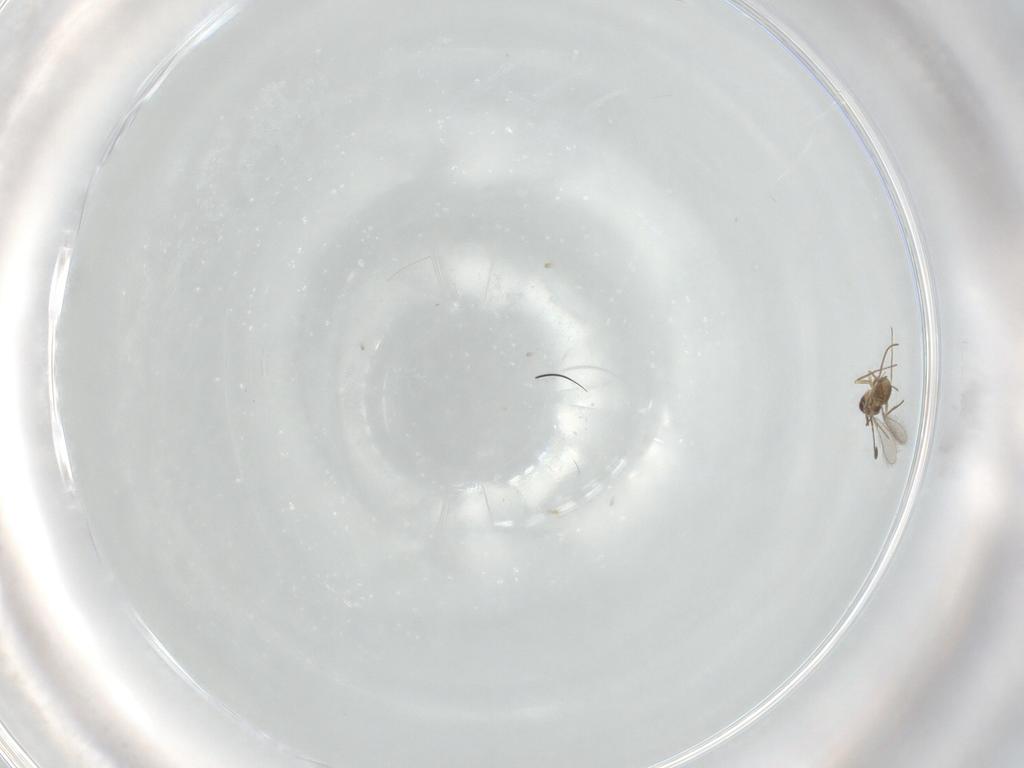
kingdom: Animalia
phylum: Arthropoda
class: Insecta
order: Hymenoptera
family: Mymaridae
